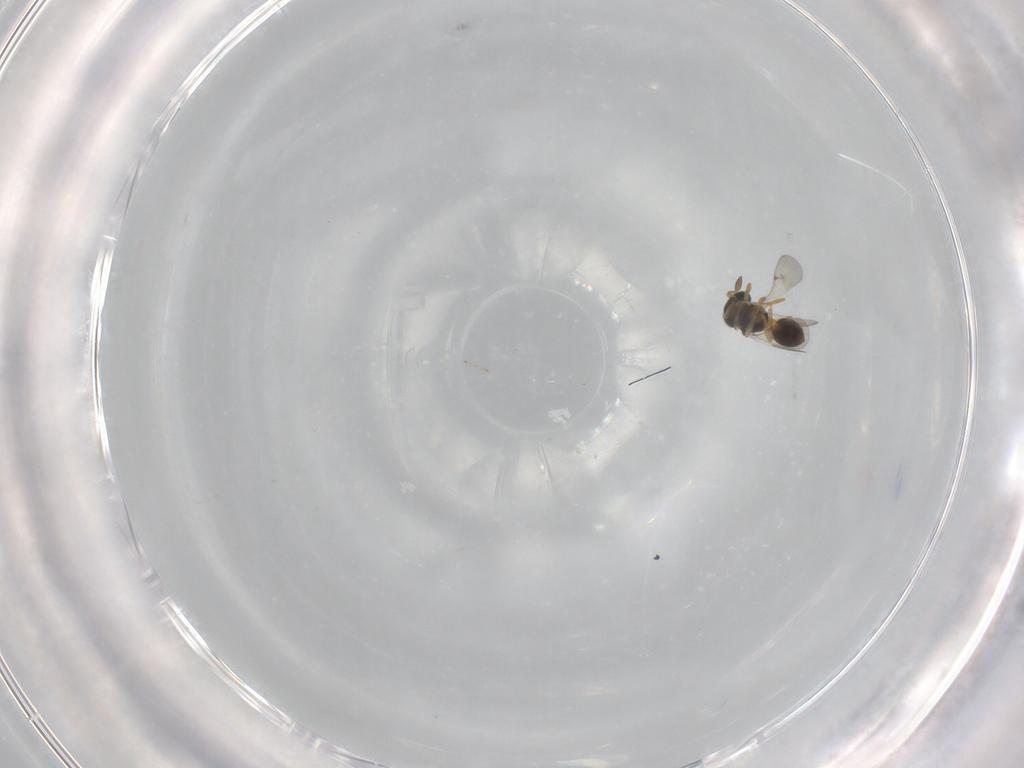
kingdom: Animalia
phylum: Arthropoda
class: Insecta
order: Hymenoptera
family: Scelionidae
